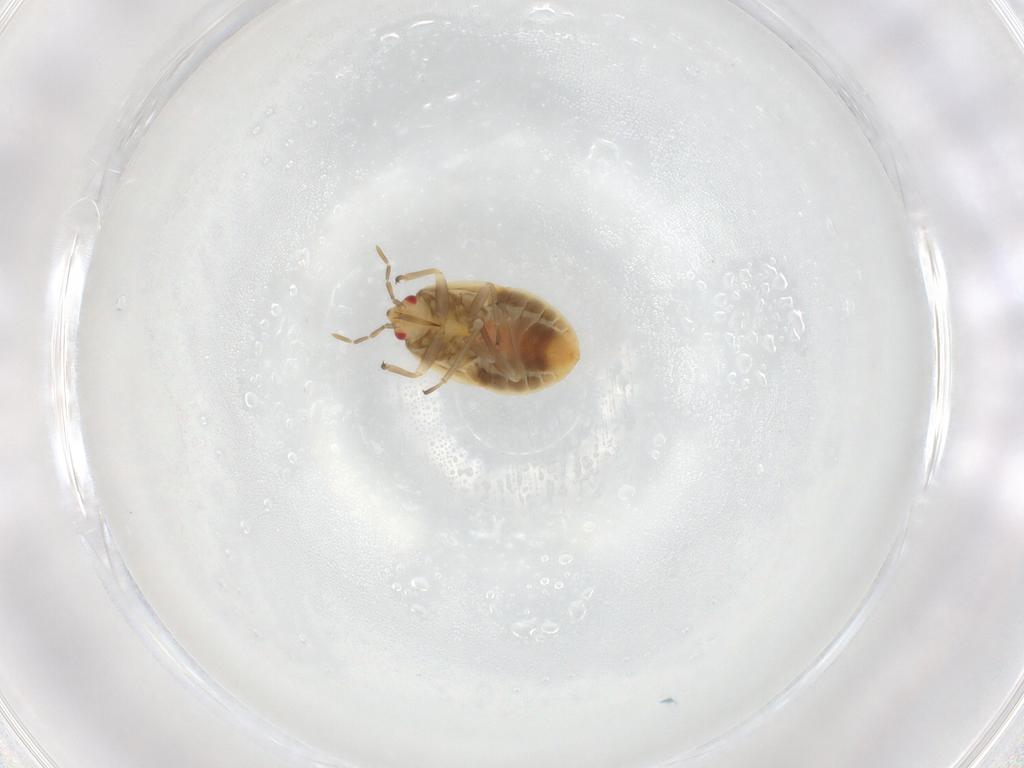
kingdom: Animalia
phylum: Arthropoda
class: Insecta
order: Hemiptera
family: Anthocoridae
